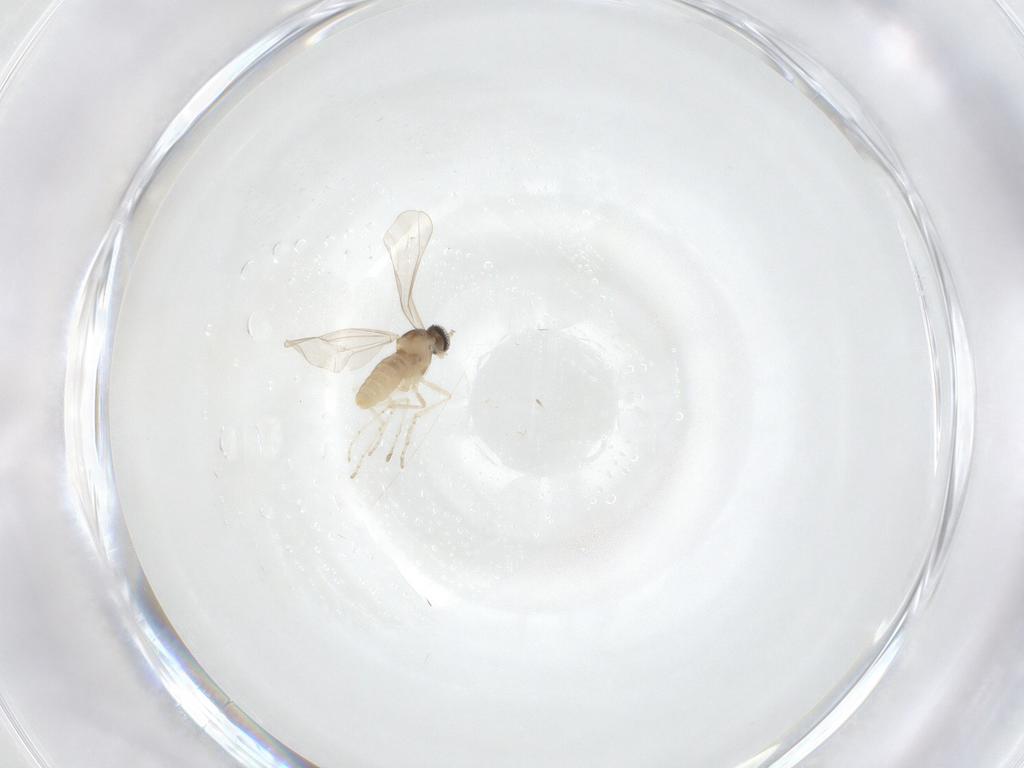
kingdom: Animalia
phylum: Arthropoda
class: Insecta
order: Diptera
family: Cecidomyiidae
